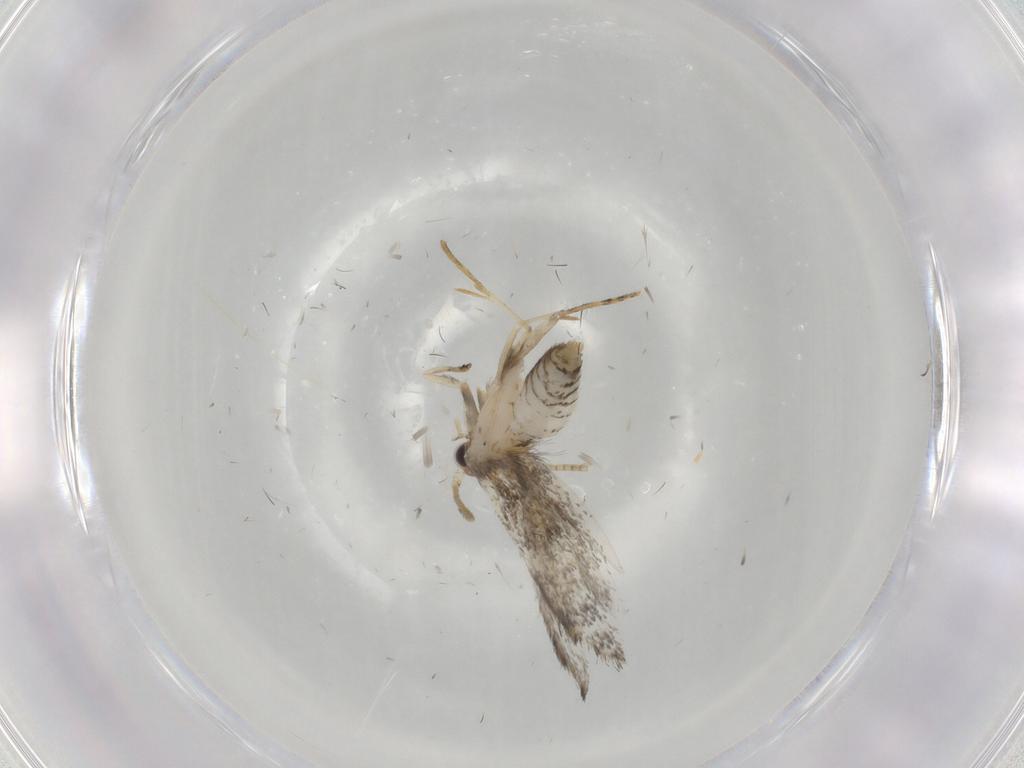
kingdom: Animalia
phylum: Arthropoda
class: Insecta
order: Lepidoptera
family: Tineidae
